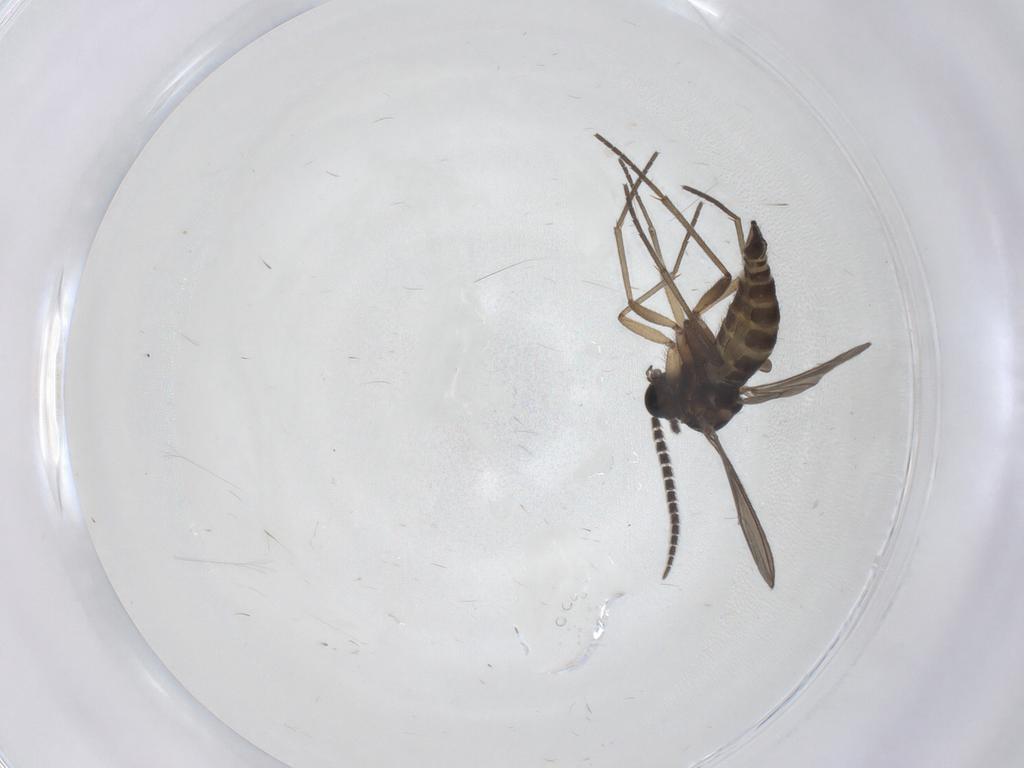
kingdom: Animalia
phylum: Arthropoda
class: Insecta
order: Diptera
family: Sciaridae
